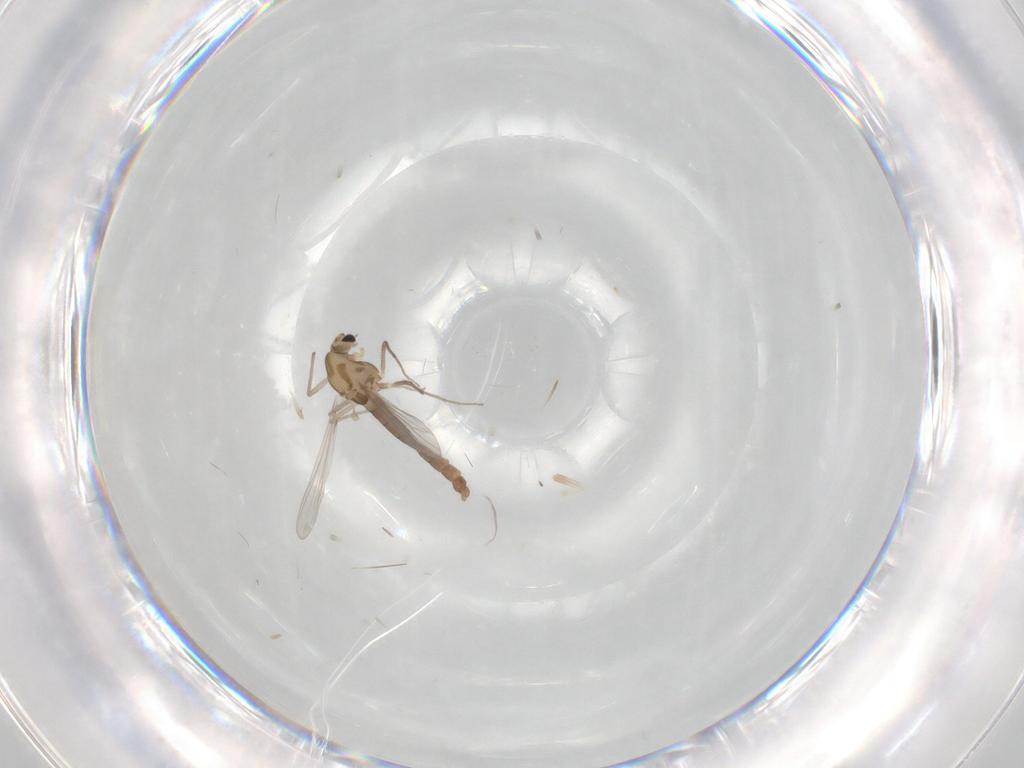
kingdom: Animalia
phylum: Arthropoda
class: Insecta
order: Diptera
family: Chironomidae
